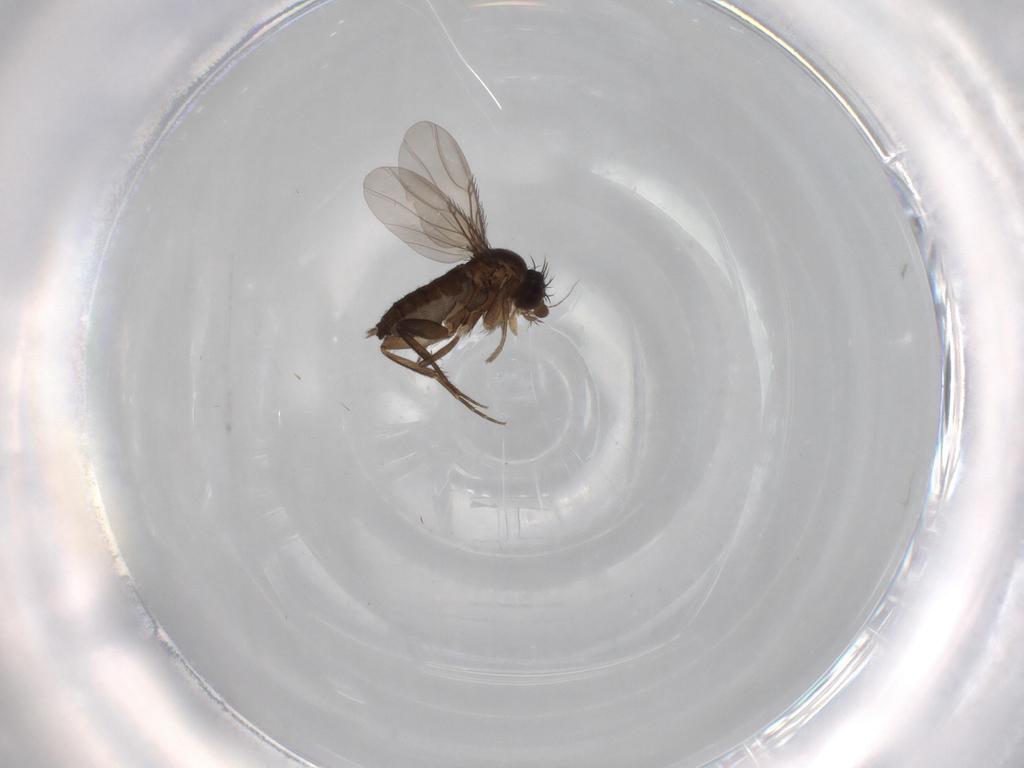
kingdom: Animalia
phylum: Arthropoda
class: Insecta
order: Diptera
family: Phoridae
